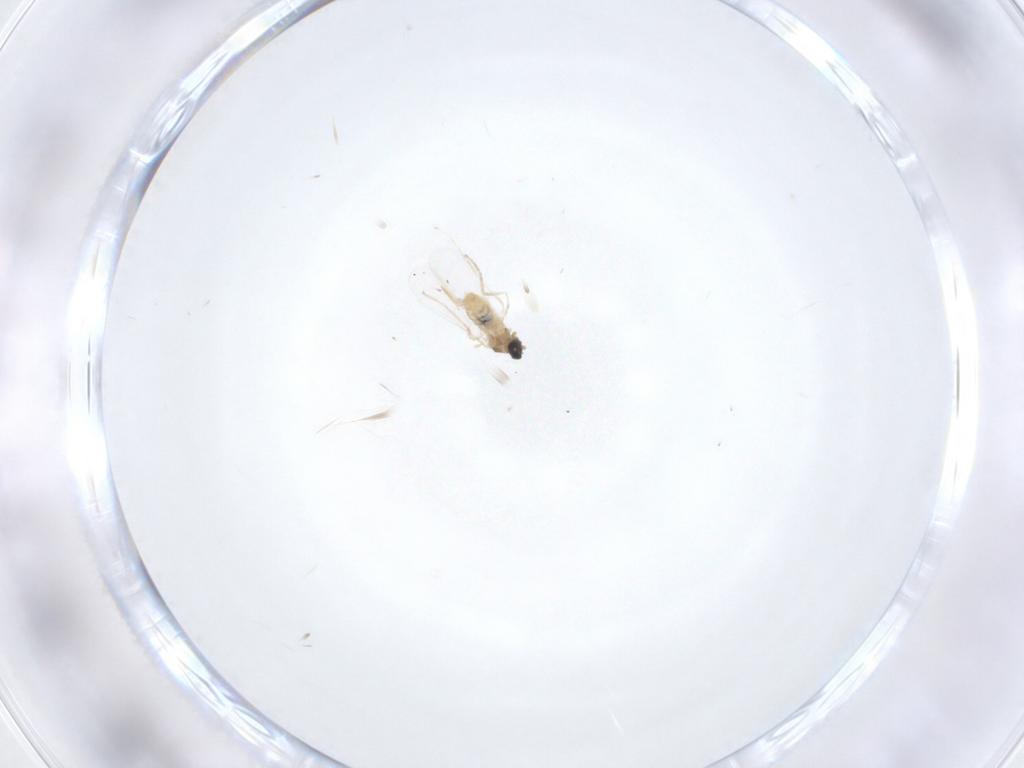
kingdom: Animalia
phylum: Arthropoda
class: Insecta
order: Diptera
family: Cecidomyiidae
